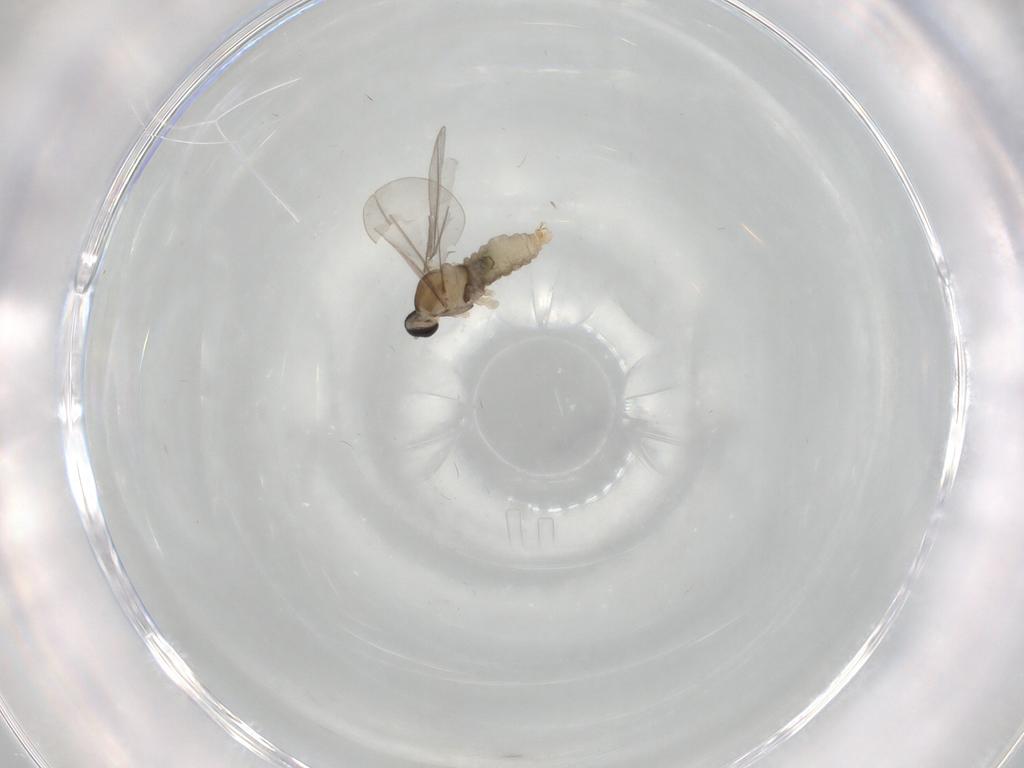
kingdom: Animalia
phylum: Arthropoda
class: Insecta
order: Diptera
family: Cecidomyiidae
